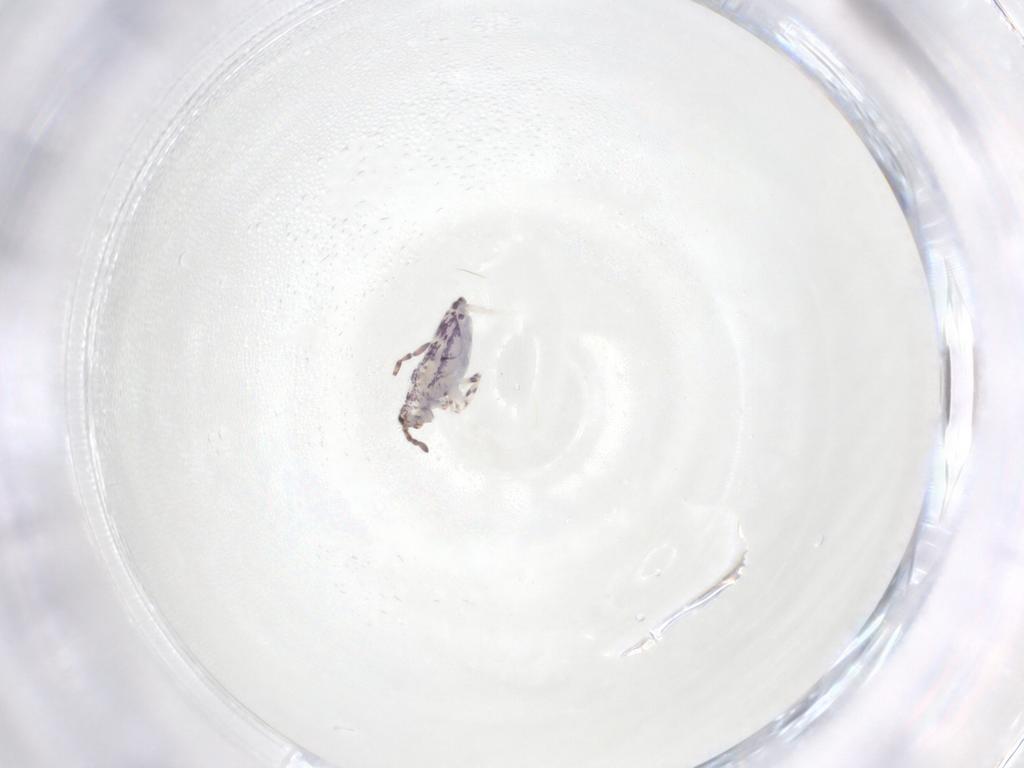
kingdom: Animalia
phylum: Arthropoda
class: Collembola
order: Entomobryomorpha
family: Entomobryidae
